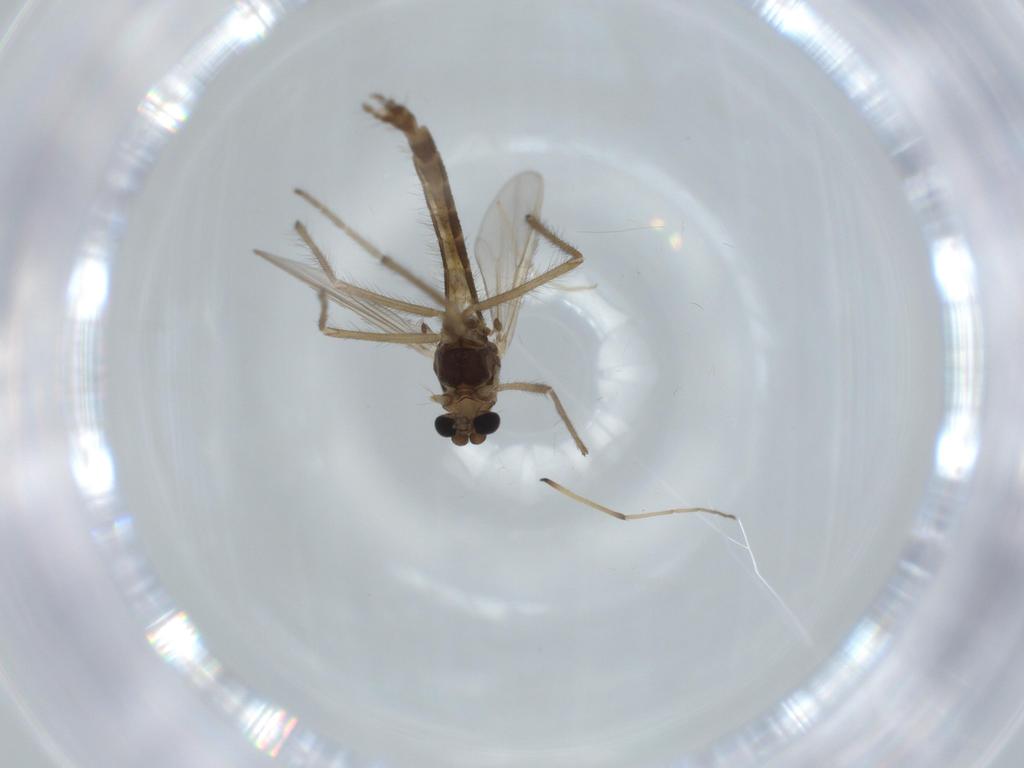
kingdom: Animalia
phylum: Arthropoda
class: Insecta
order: Diptera
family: Chironomidae
